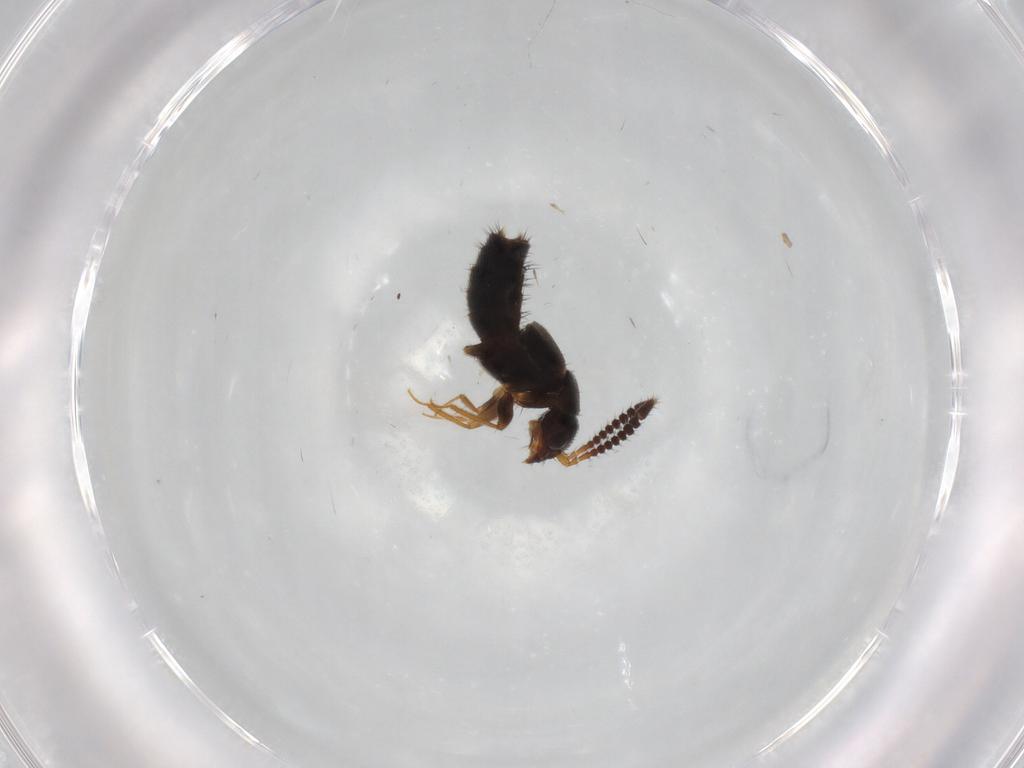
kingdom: Animalia
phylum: Arthropoda
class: Insecta
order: Coleoptera
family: Staphylinidae
